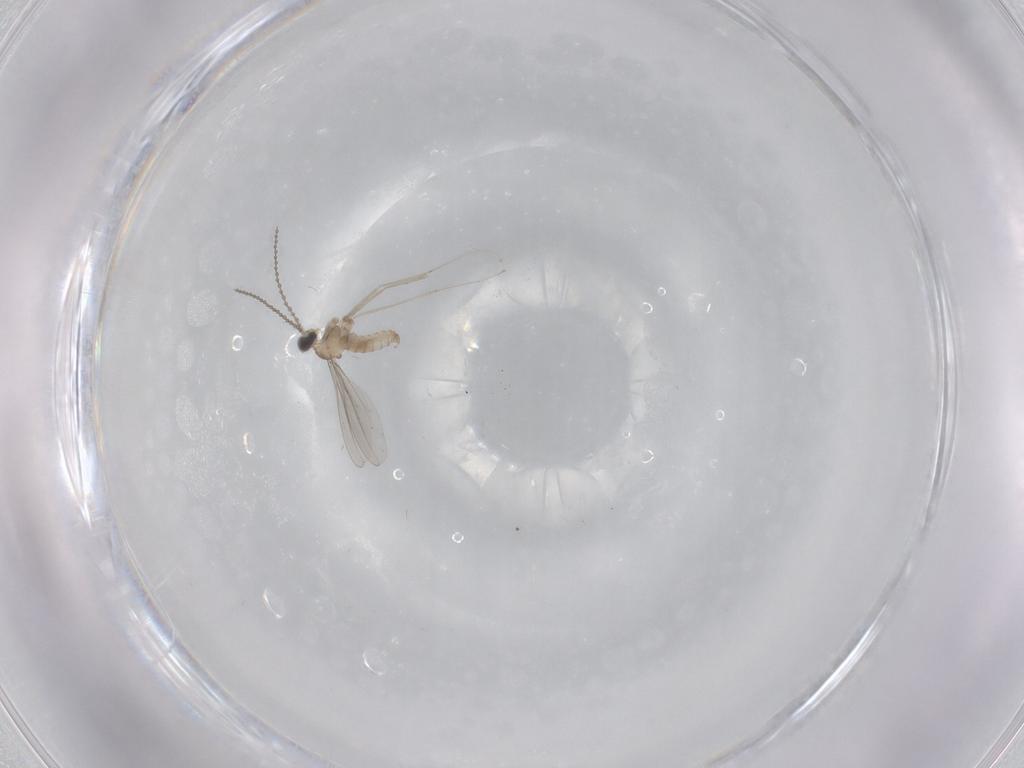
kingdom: Animalia
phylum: Arthropoda
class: Insecta
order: Diptera
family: Cecidomyiidae
